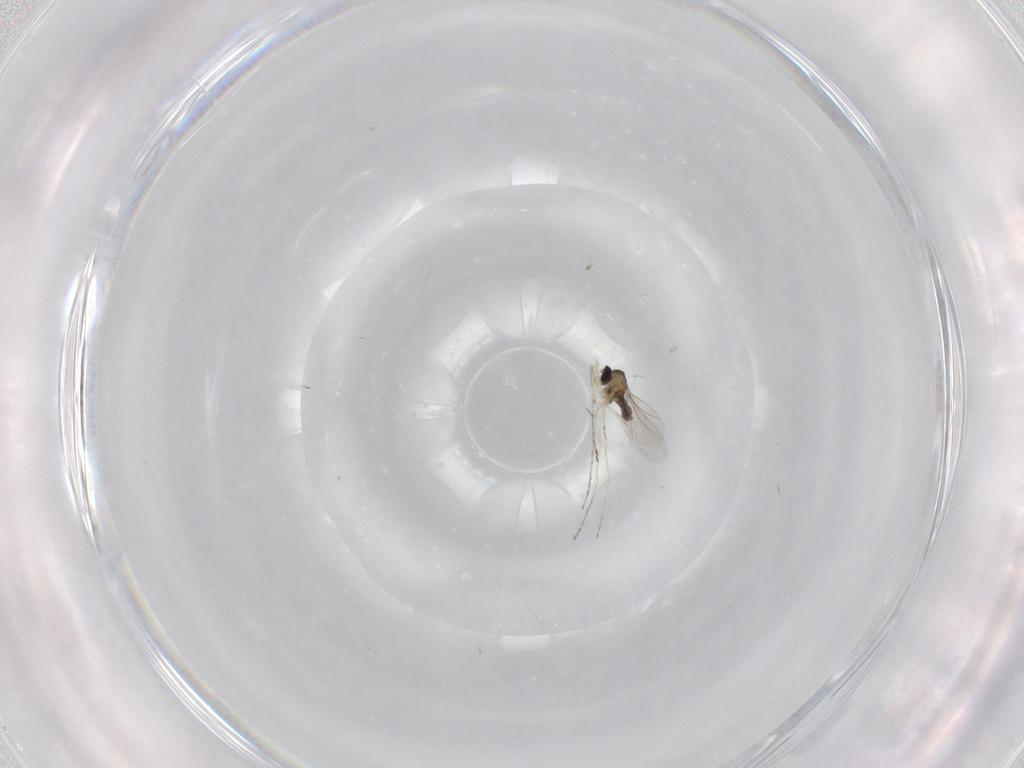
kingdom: Animalia
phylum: Arthropoda
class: Insecta
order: Diptera
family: Cecidomyiidae
